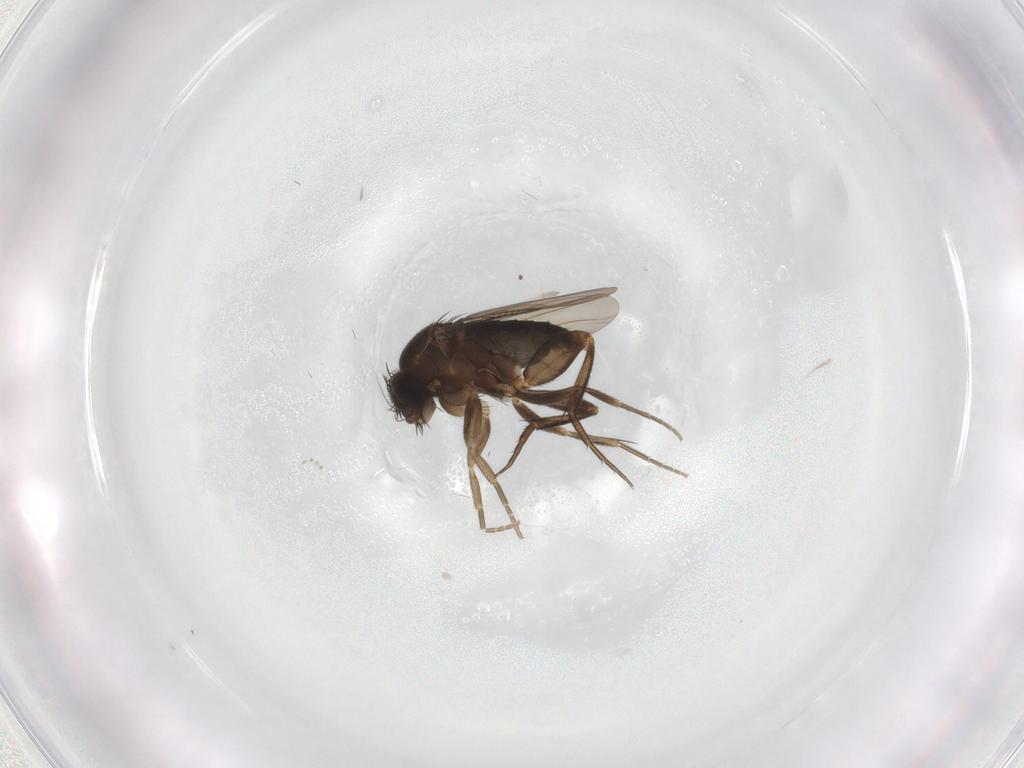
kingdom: Animalia
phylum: Arthropoda
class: Insecta
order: Diptera
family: Phoridae
